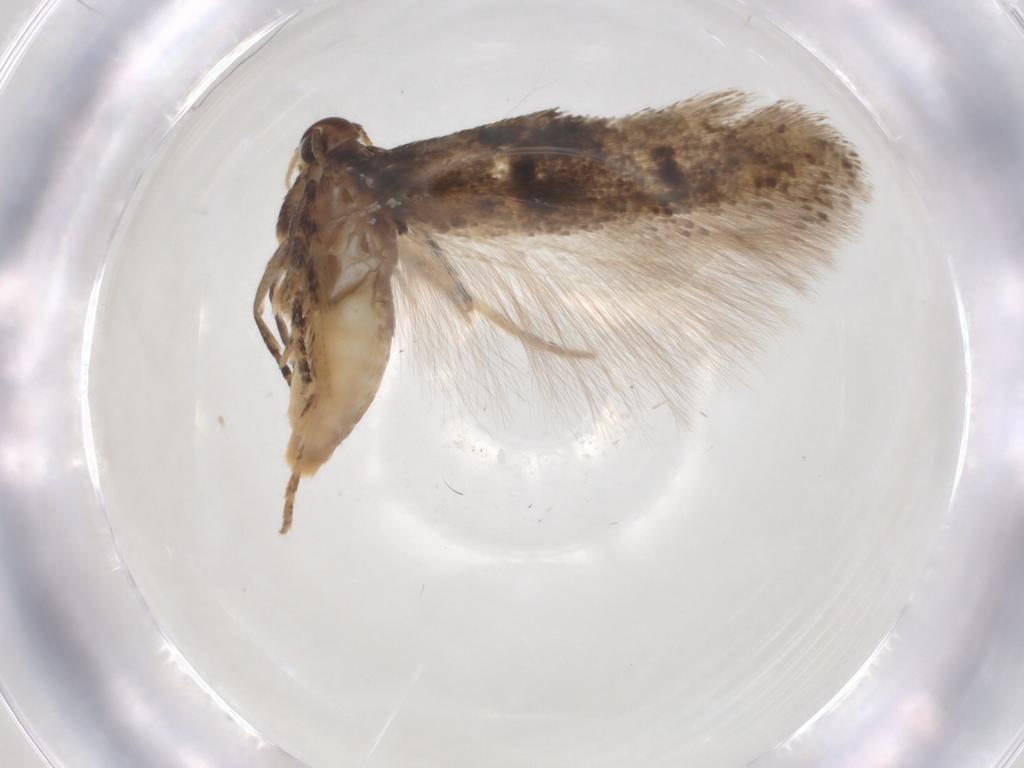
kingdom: Animalia
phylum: Arthropoda
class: Insecta
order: Lepidoptera
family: Gelechiidae
